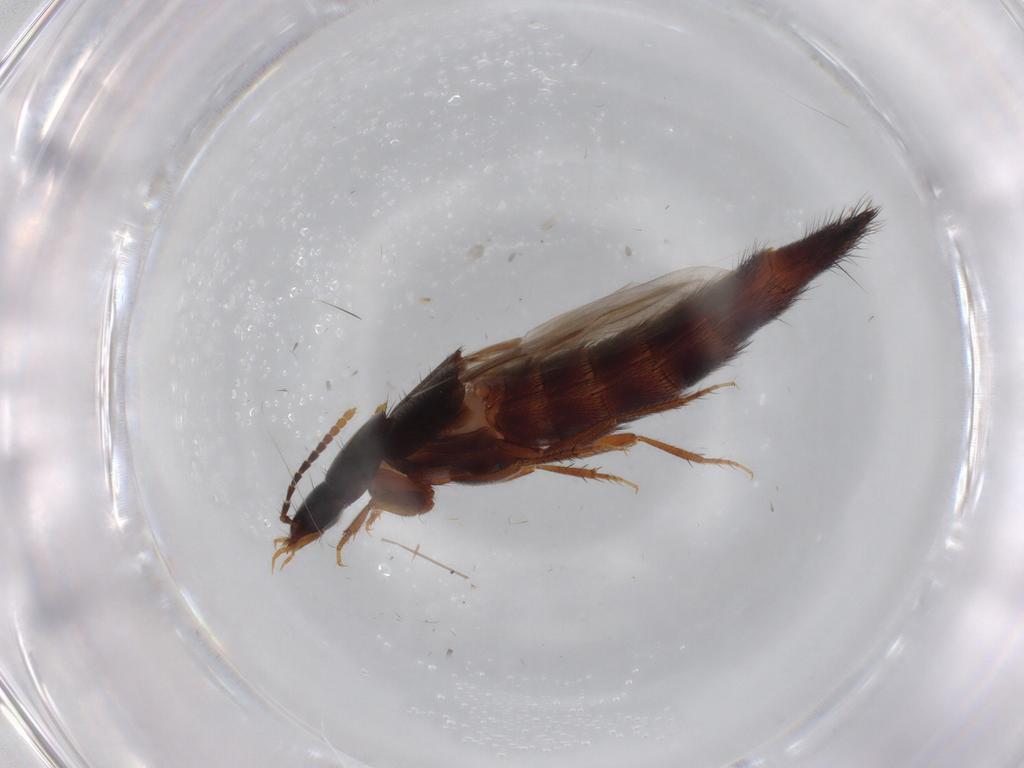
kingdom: Animalia
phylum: Arthropoda
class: Insecta
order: Coleoptera
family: Staphylinidae
